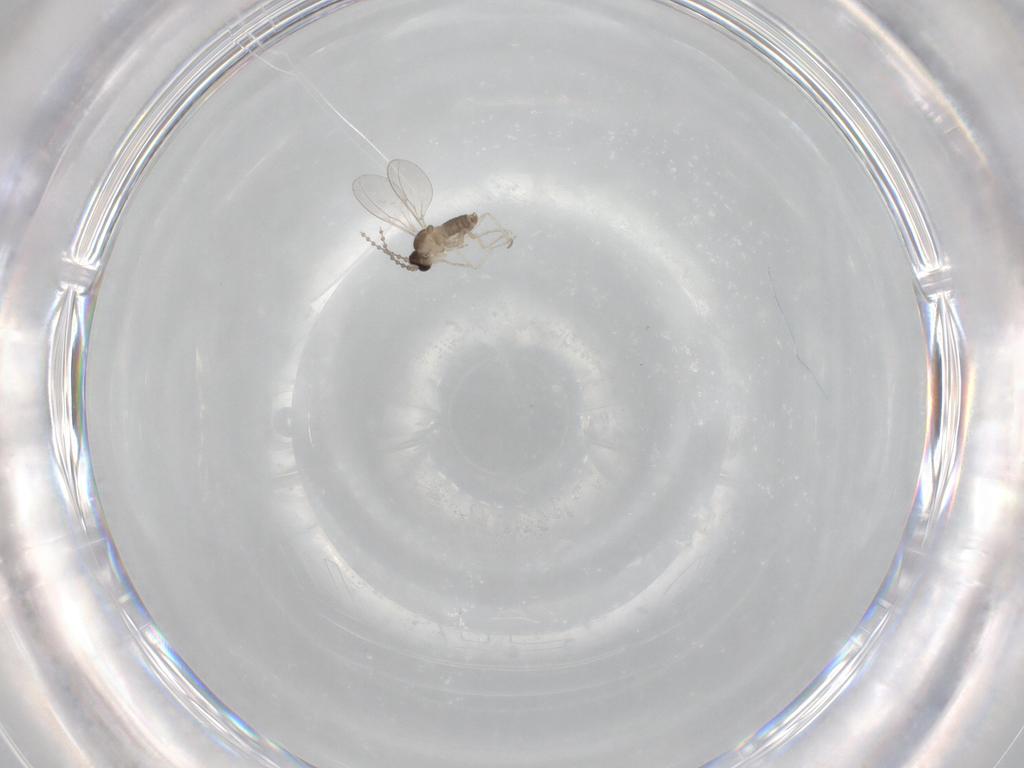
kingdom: Animalia
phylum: Arthropoda
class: Insecta
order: Diptera
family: Cecidomyiidae
